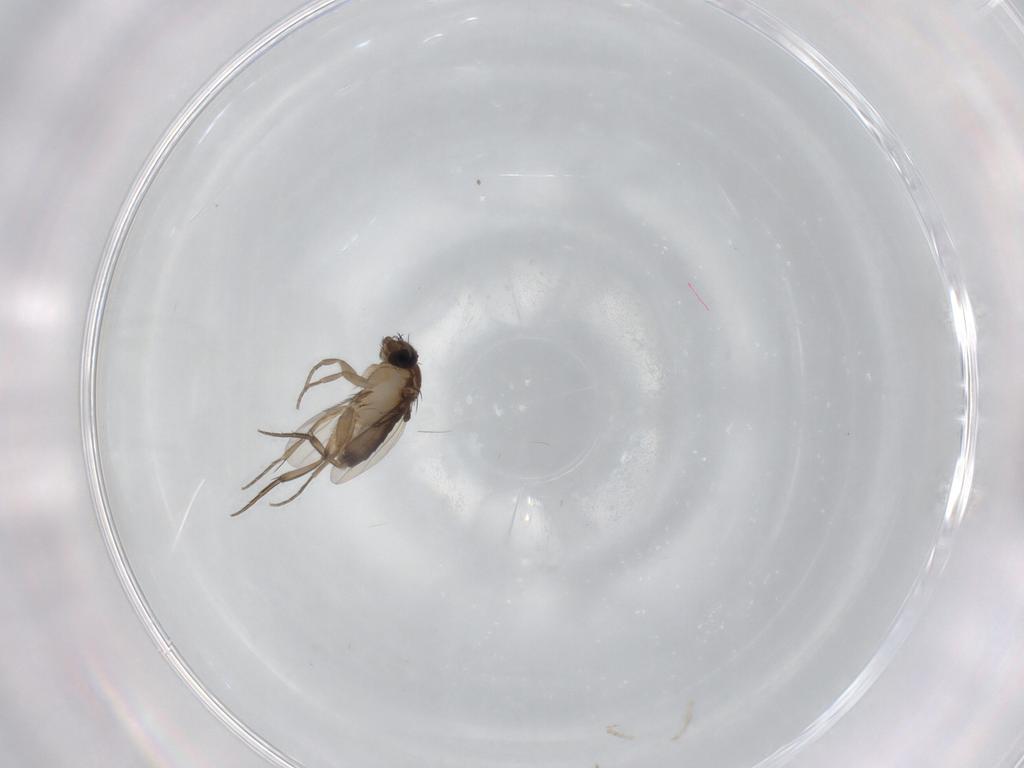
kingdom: Animalia
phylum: Arthropoda
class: Insecta
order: Diptera
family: Phoridae
